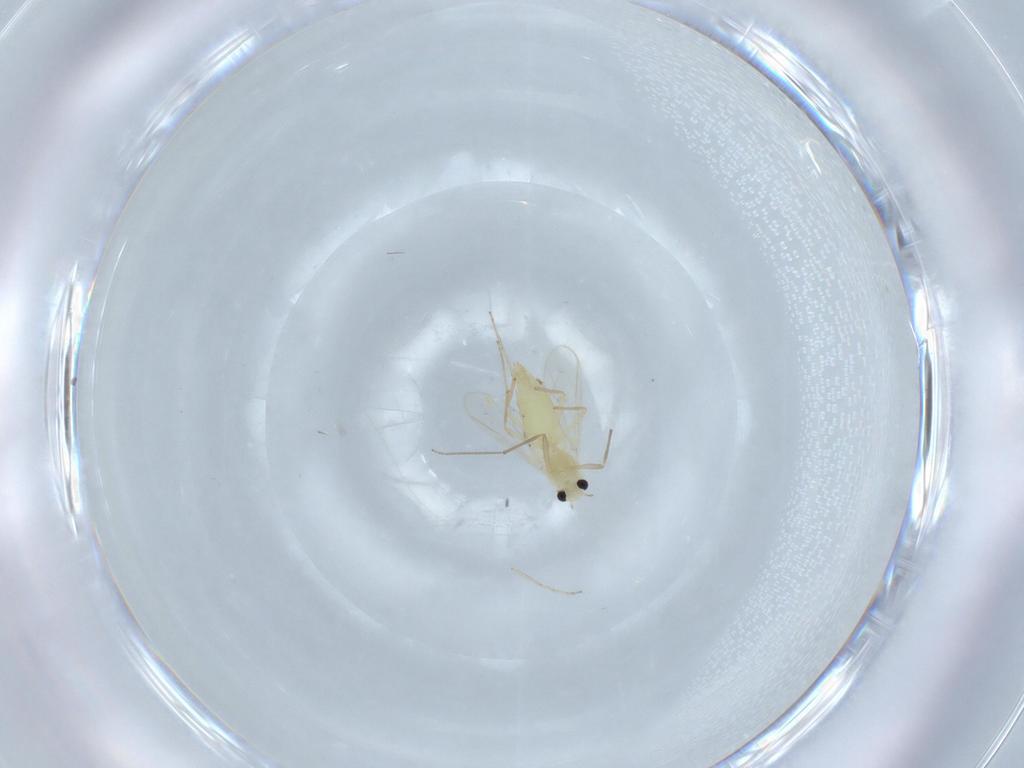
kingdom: Animalia
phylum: Arthropoda
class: Insecta
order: Diptera
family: Chironomidae
